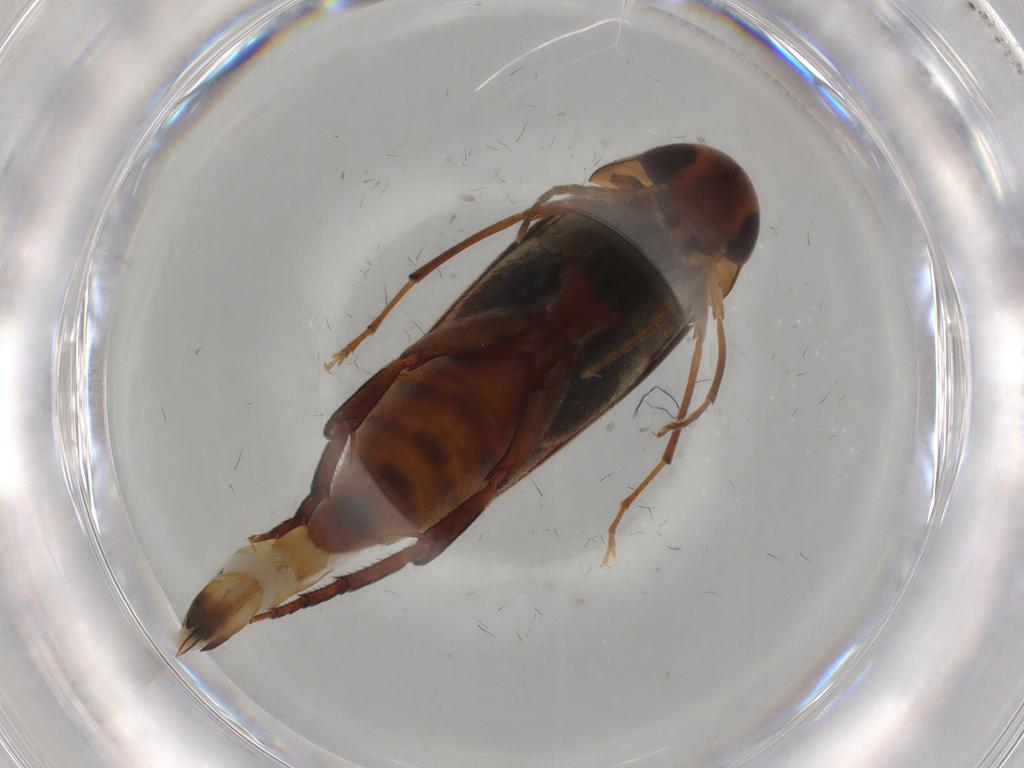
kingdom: Animalia
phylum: Arthropoda
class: Insecta
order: Coleoptera
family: Mordellidae
